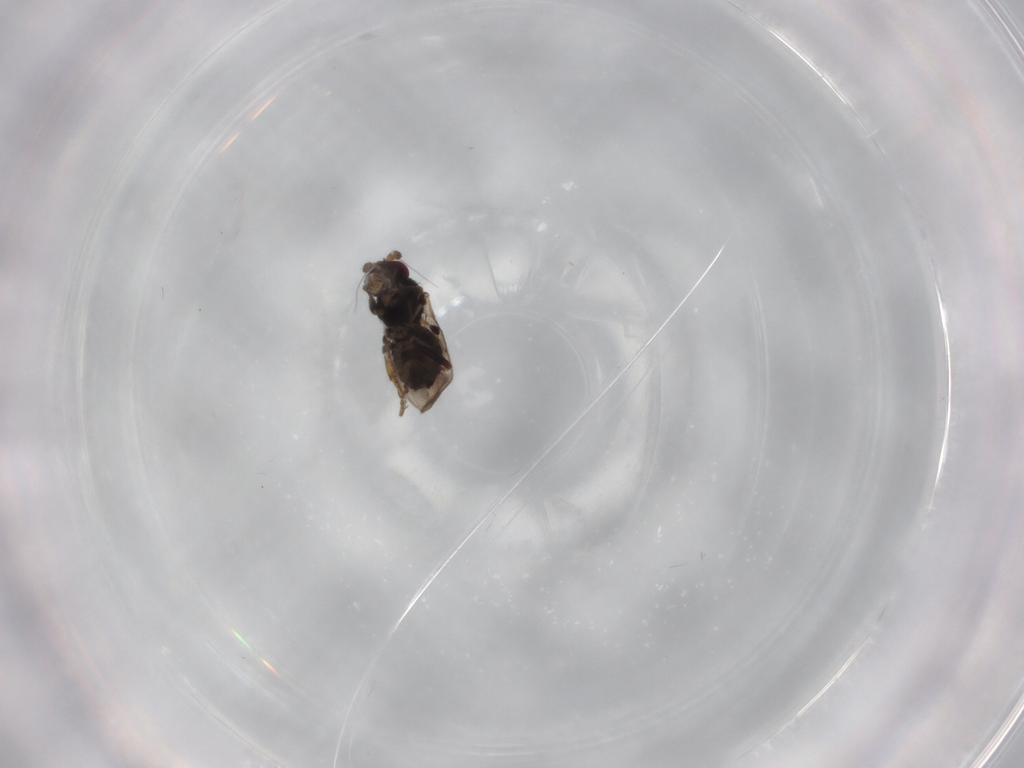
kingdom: Animalia
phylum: Arthropoda
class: Insecta
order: Diptera
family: Sphaeroceridae
